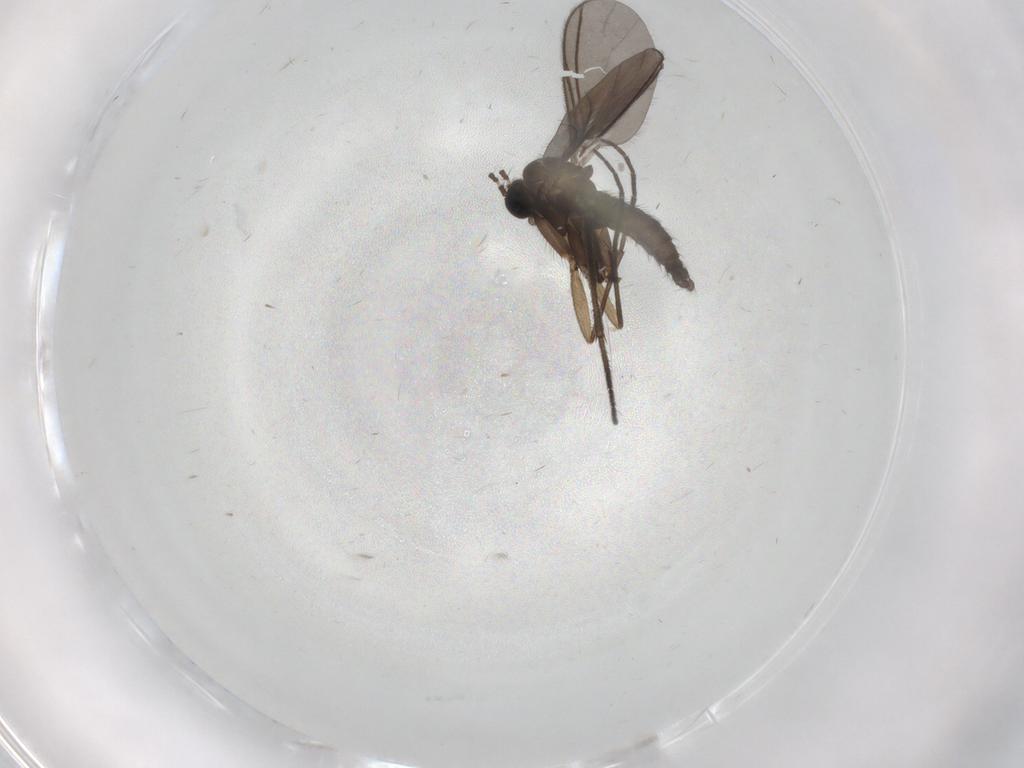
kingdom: Animalia
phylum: Arthropoda
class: Insecta
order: Diptera
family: Sciaridae
